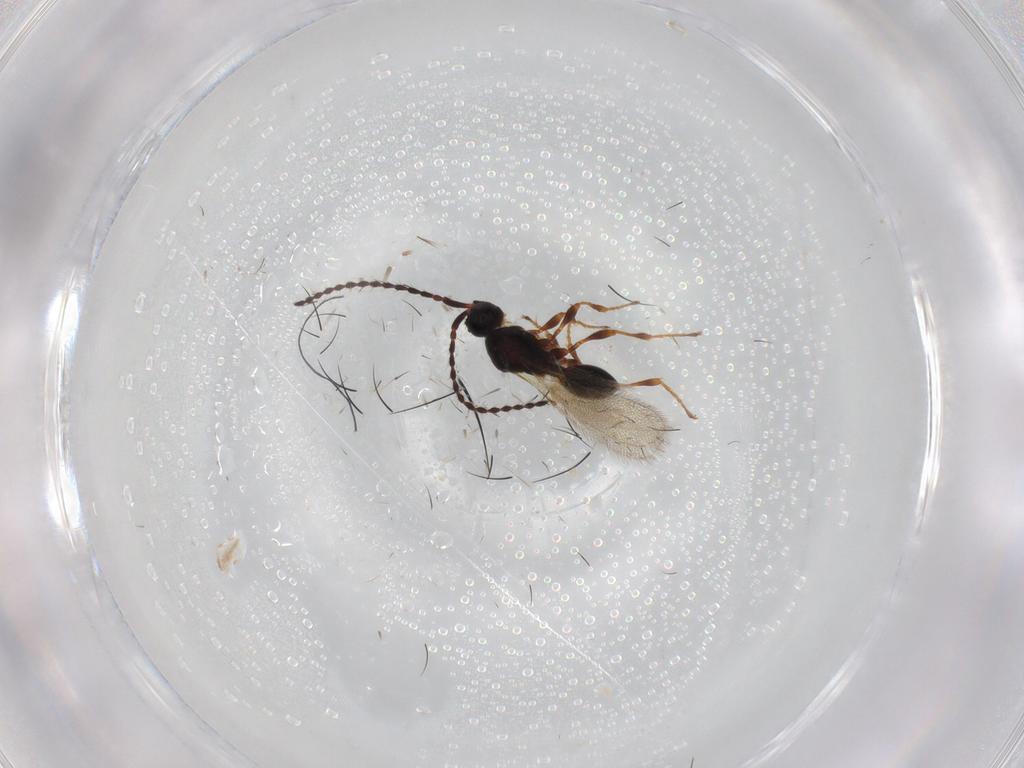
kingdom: Animalia
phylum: Arthropoda
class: Insecta
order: Hymenoptera
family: Diapriidae
